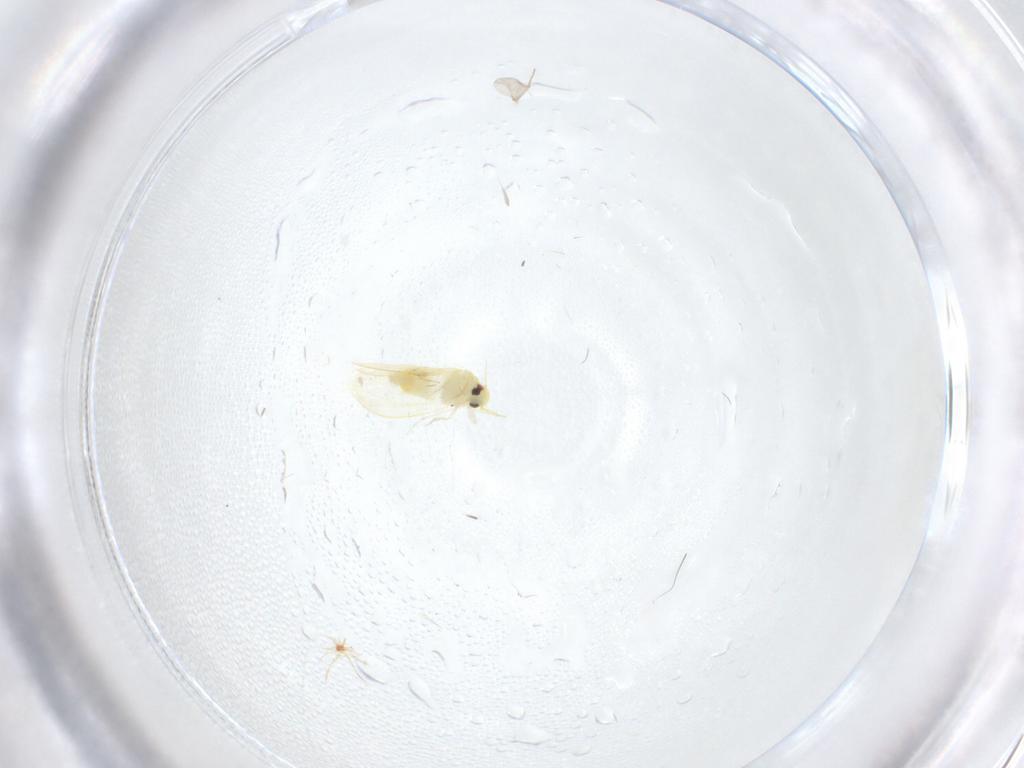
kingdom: Animalia
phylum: Arthropoda
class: Insecta
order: Hemiptera
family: Aleyrodidae
